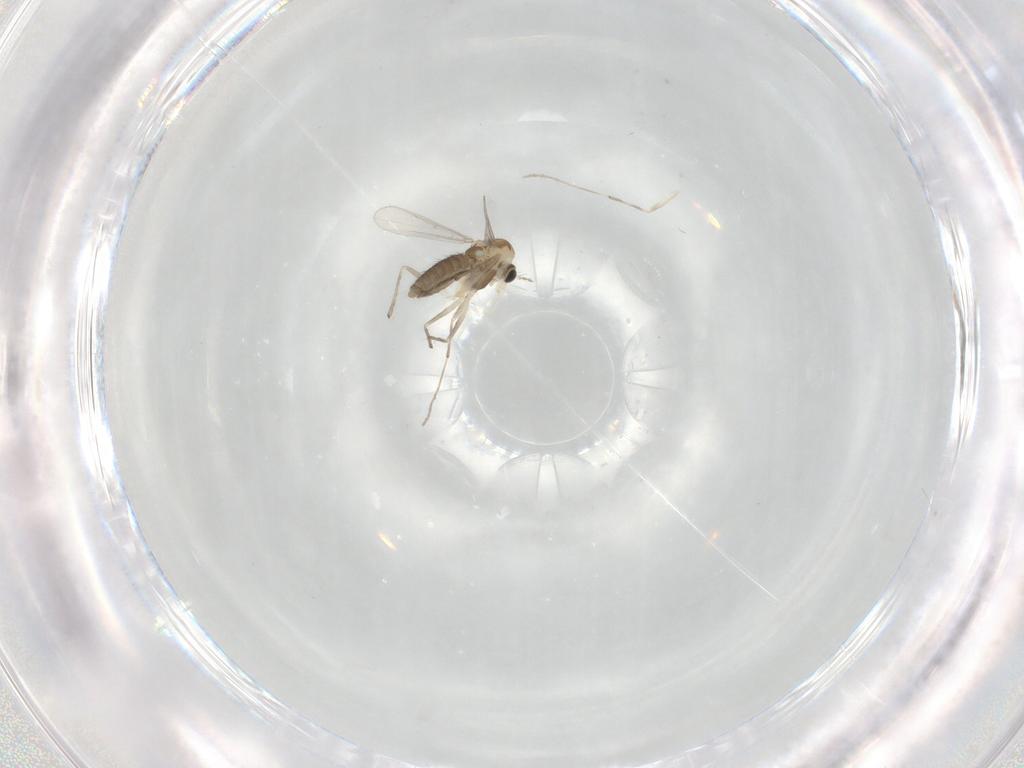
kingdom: Animalia
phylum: Arthropoda
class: Insecta
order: Diptera
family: Chironomidae
